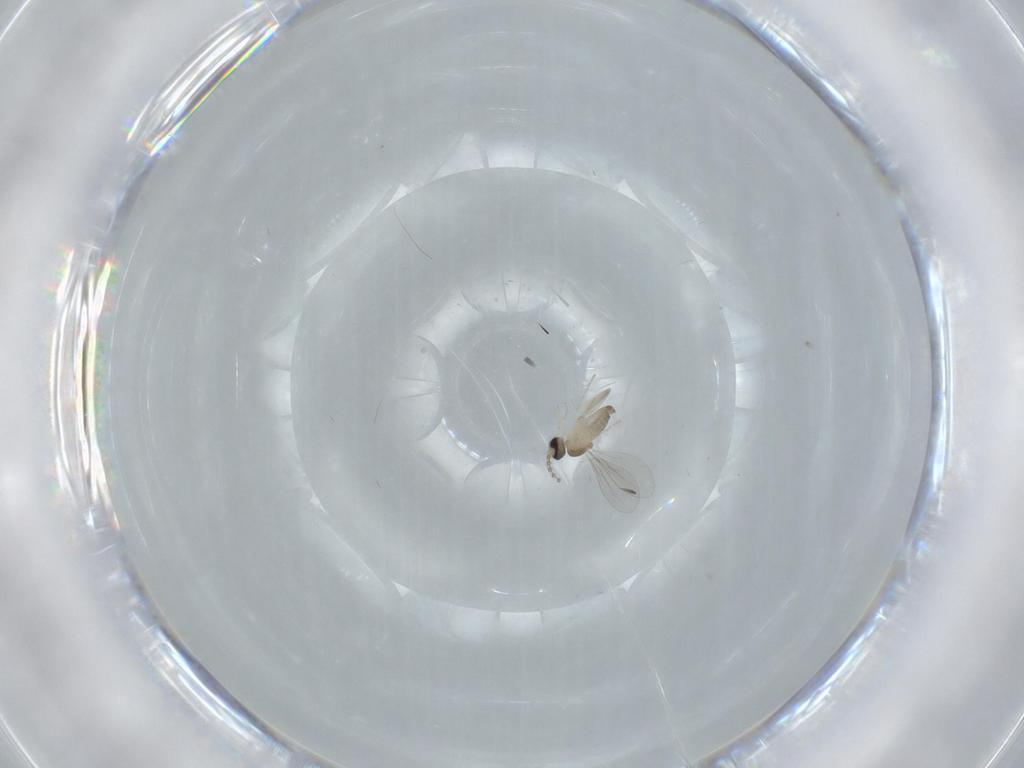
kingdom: Animalia
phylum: Arthropoda
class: Insecta
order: Diptera
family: Cecidomyiidae
